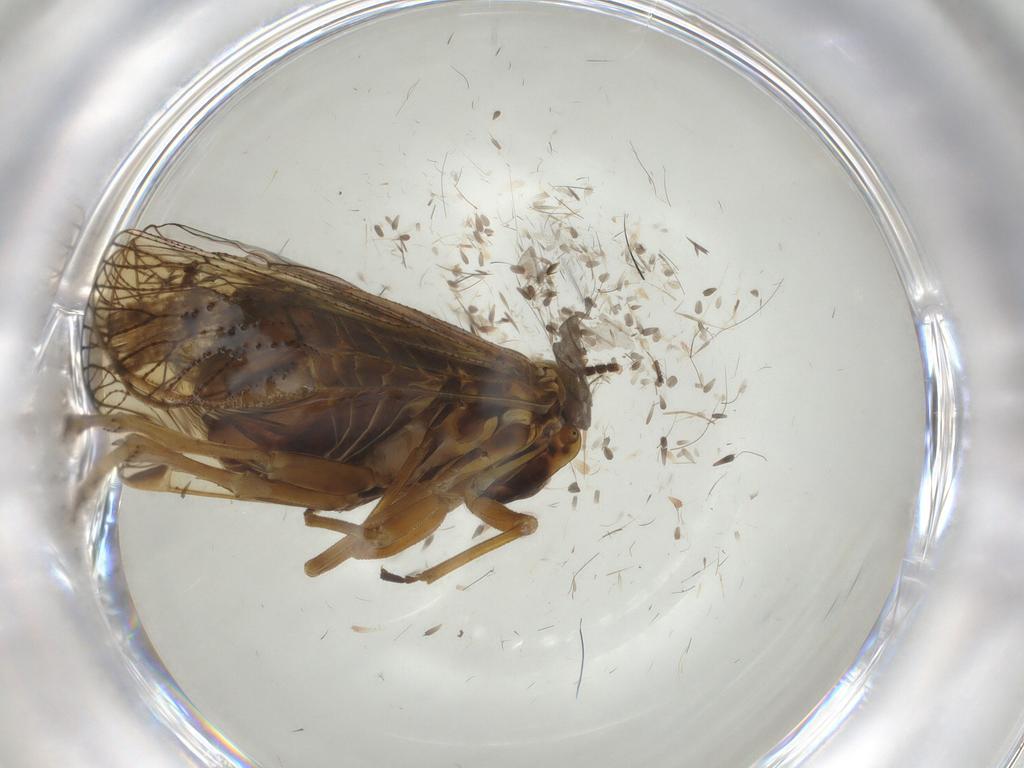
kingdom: Animalia
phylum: Arthropoda
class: Insecta
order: Hemiptera
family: Cixiidae
